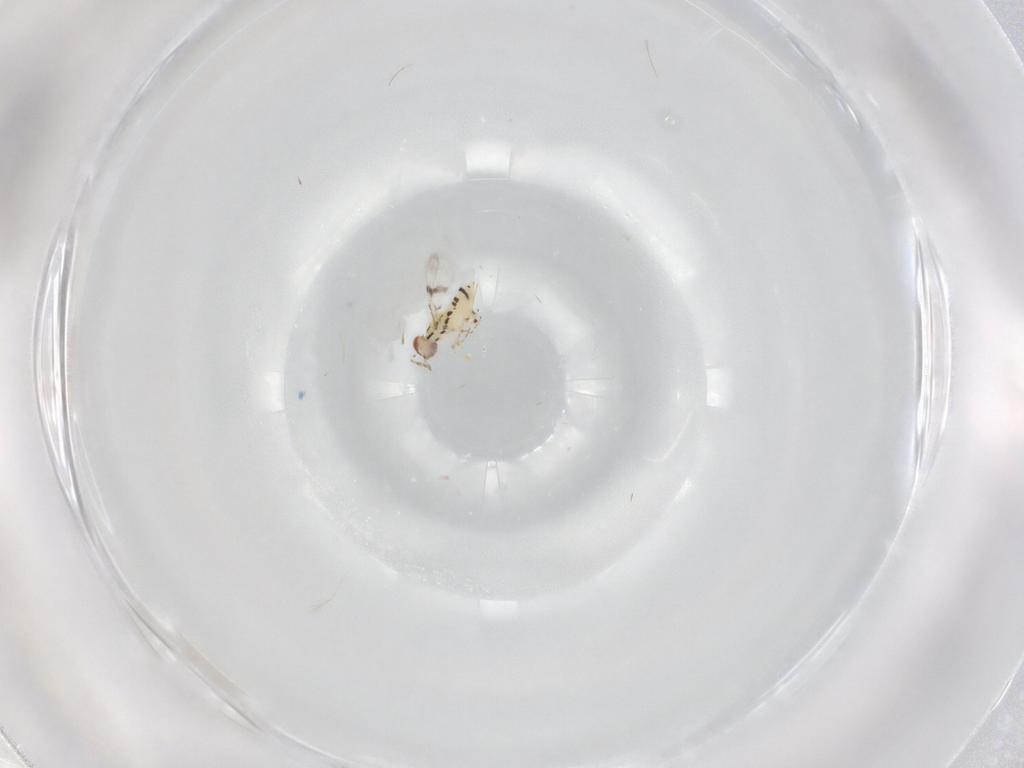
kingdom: Animalia
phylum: Arthropoda
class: Insecta
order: Hymenoptera
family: Trichogrammatidae
